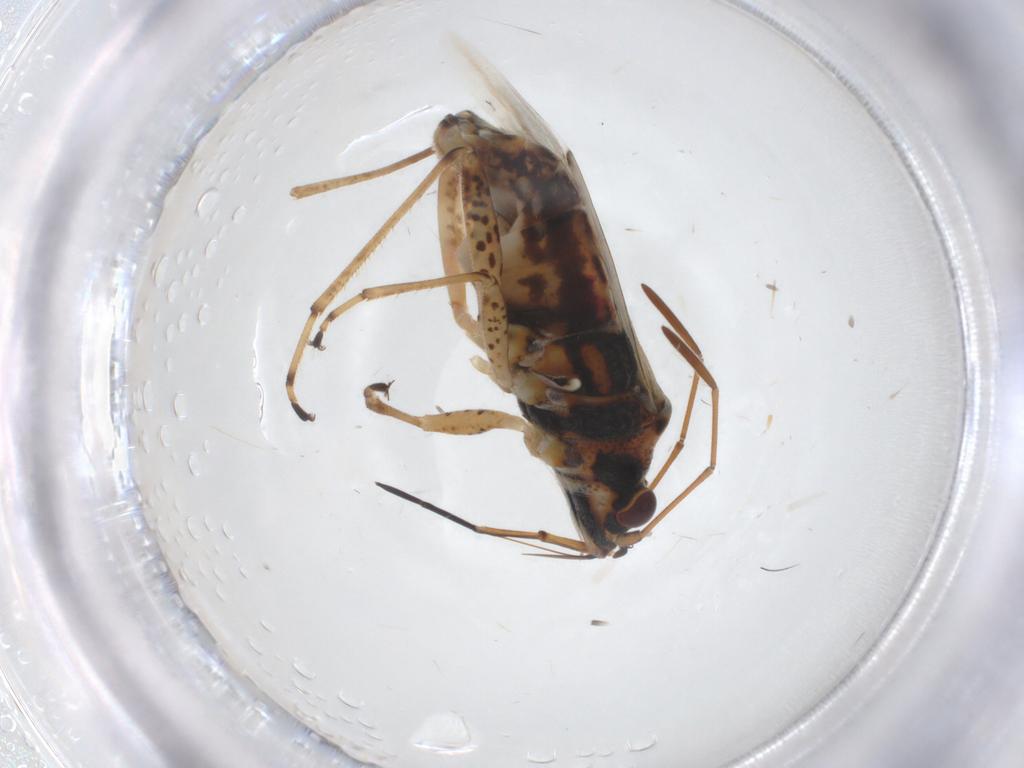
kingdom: Animalia
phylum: Arthropoda
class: Insecta
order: Hemiptera
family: Lygaeidae
